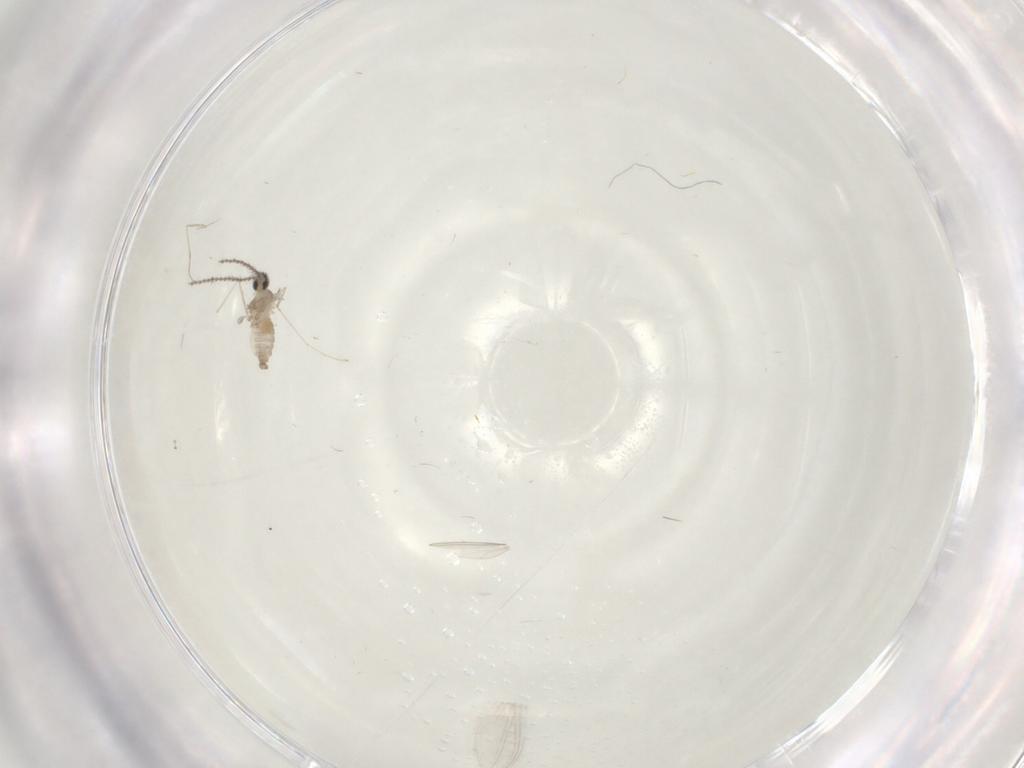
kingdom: Animalia
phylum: Arthropoda
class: Insecta
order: Diptera
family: Cecidomyiidae
